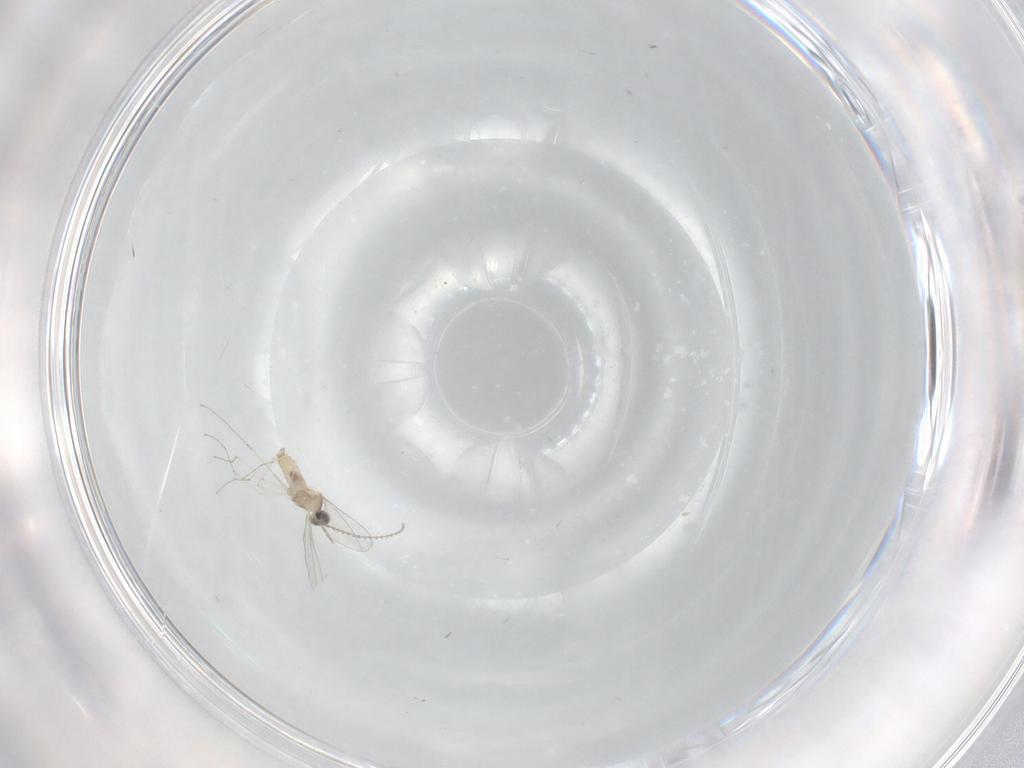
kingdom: Animalia
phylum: Arthropoda
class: Insecta
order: Diptera
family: Cecidomyiidae
